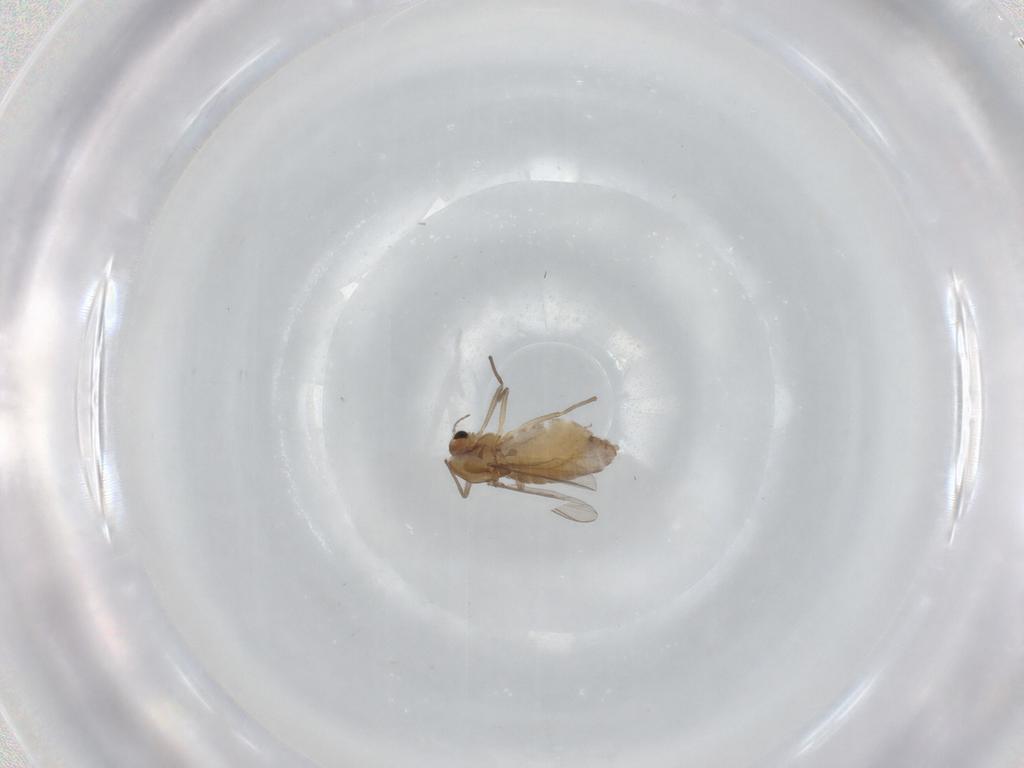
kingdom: Animalia
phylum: Arthropoda
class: Insecta
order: Diptera
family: Chironomidae
